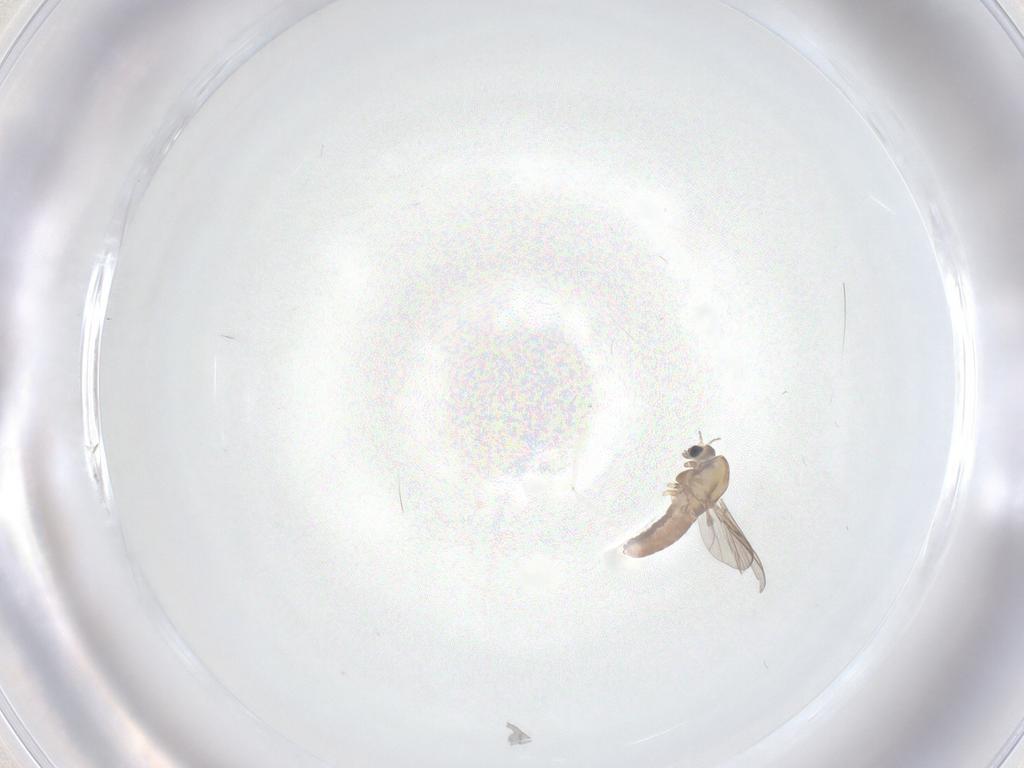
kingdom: Animalia
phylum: Arthropoda
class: Insecta
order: Diptera
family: Chironomidae
